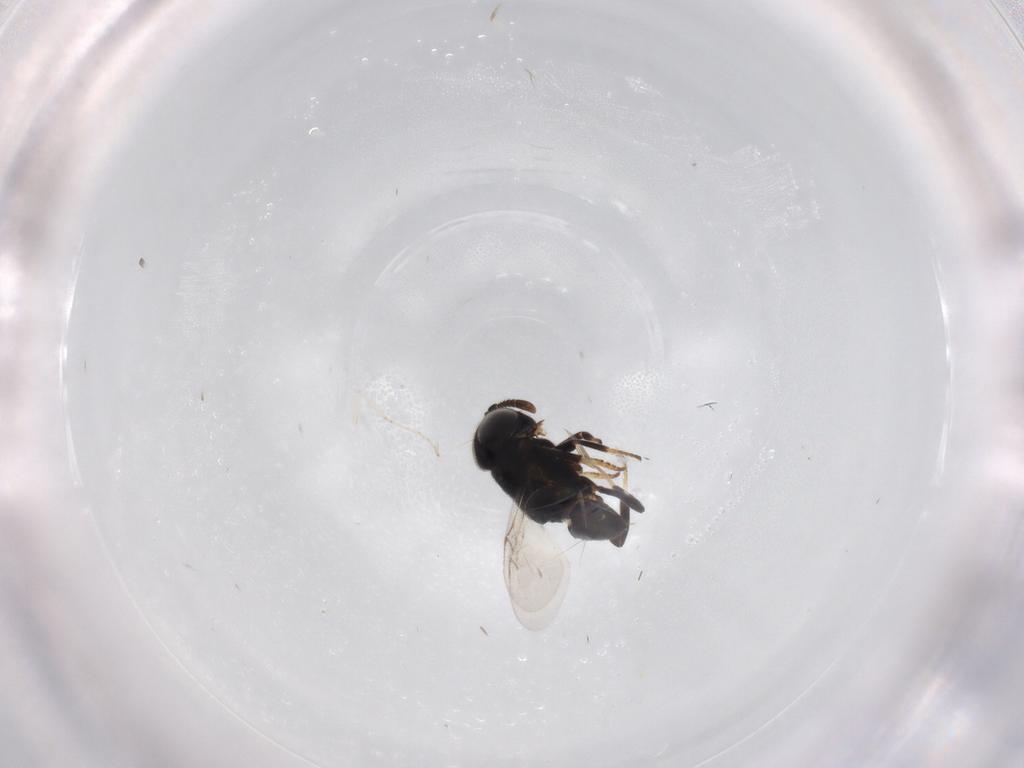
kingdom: Animalia
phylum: Arthropoda
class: Insecta
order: Hymenoptera
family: Encyrtidae
